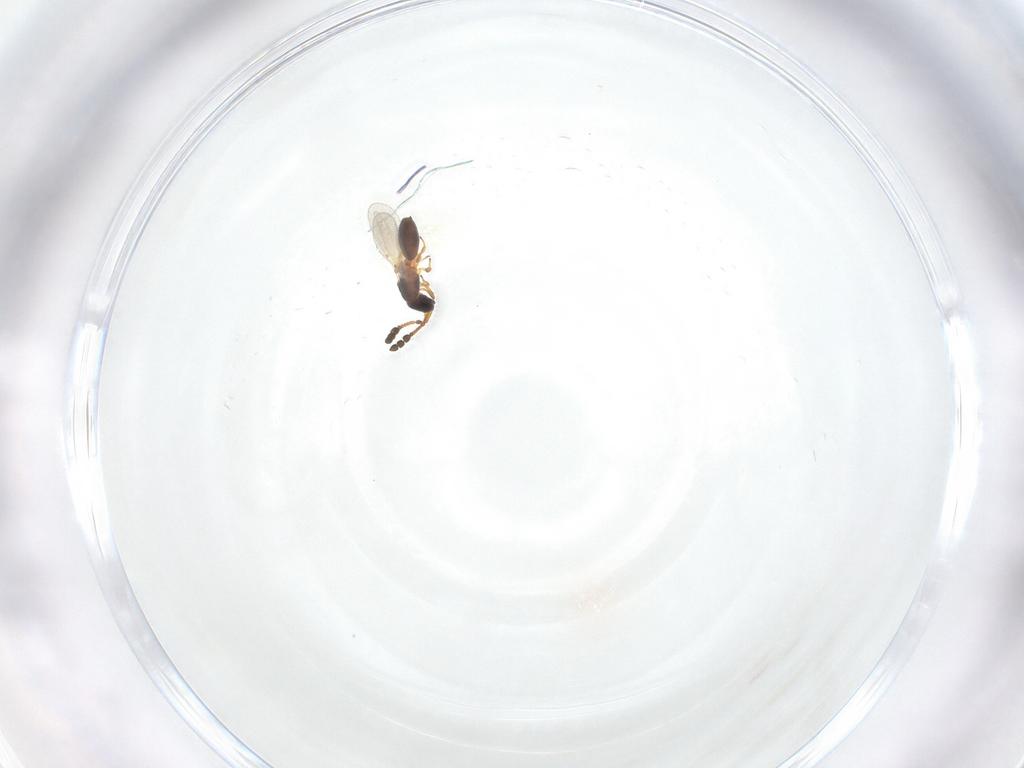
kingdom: Animalia
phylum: Arthropoda
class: Insecta
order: Hymenoptera
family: Diapriidae
